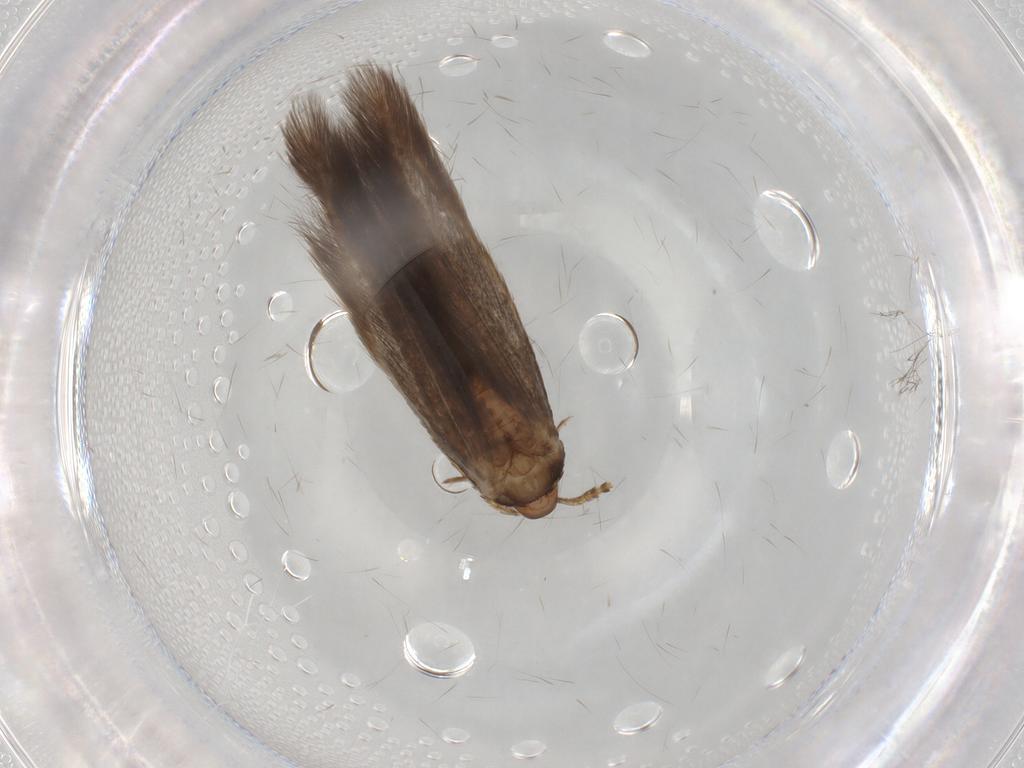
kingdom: Animalia
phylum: Arthropoda
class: Insecta
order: Lepidoptera
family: Coleophoridae
